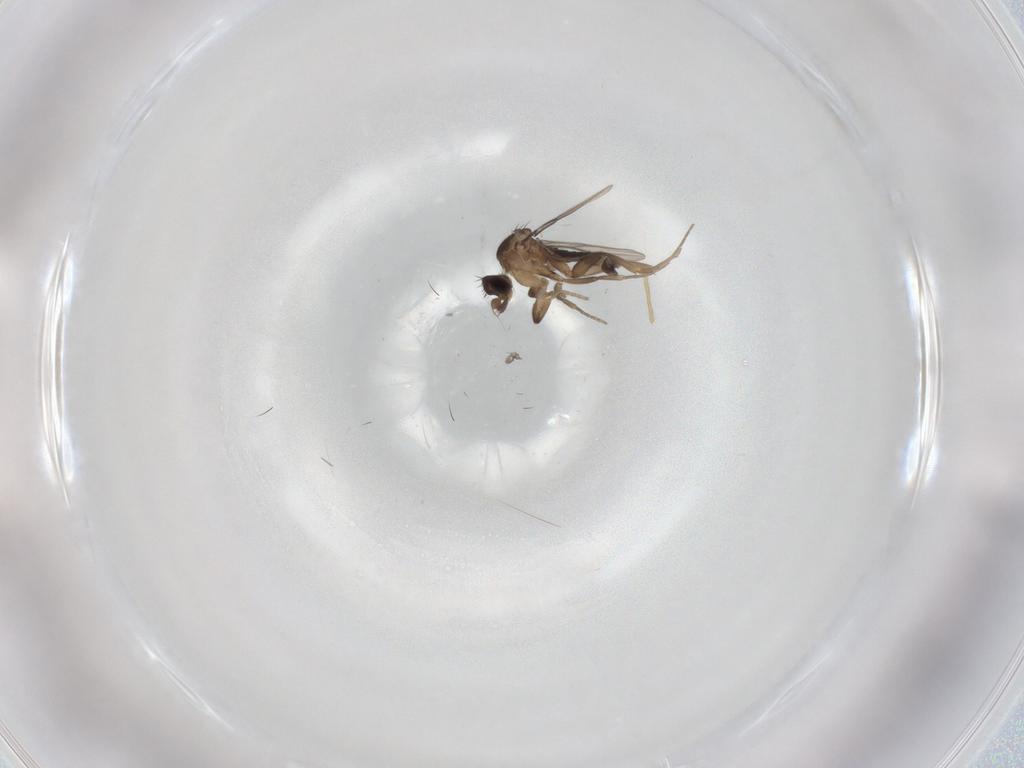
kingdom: Animalia
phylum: Arthropoda
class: Insecta
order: Diptera
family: Phoridae
